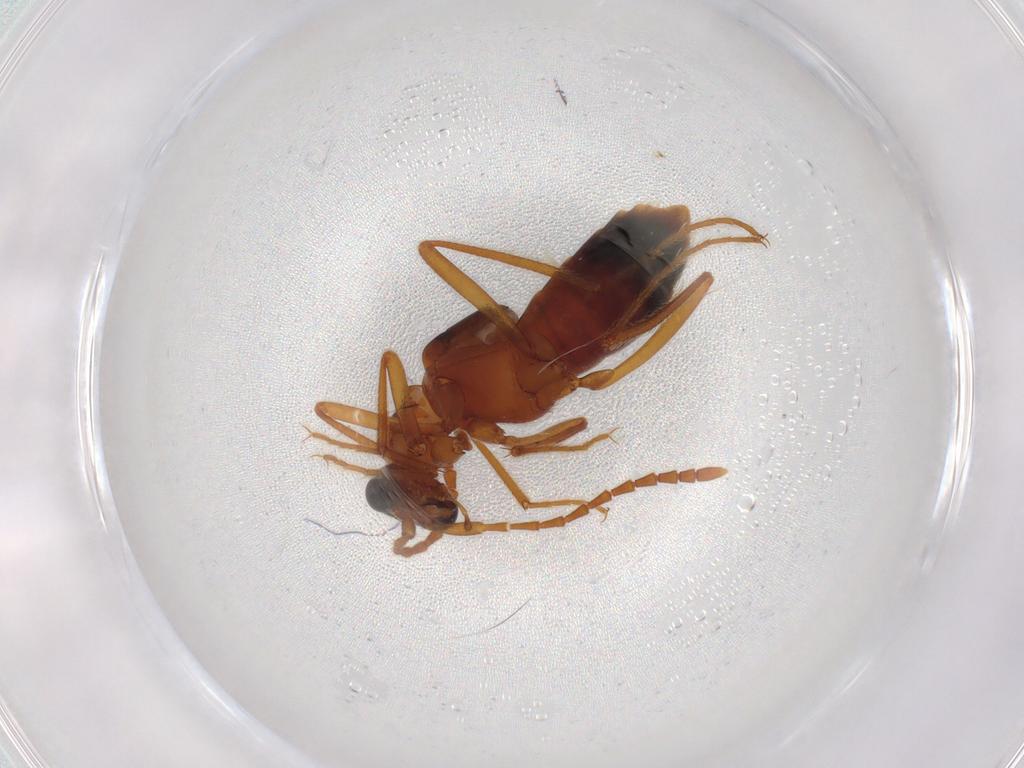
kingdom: Animalia
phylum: Arthropoda
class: Insecta
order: Coleoptera
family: Staphylinidae
